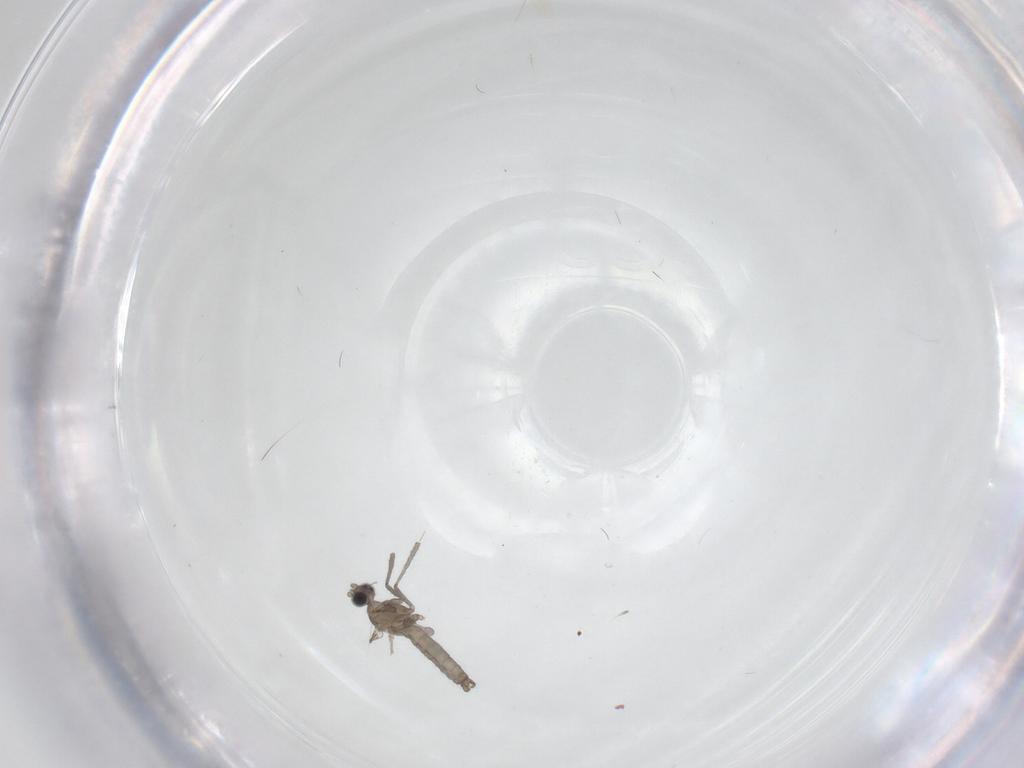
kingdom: Animalia
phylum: Arthropoda
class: Insecta
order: Diptera
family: Cecidomyiidae
